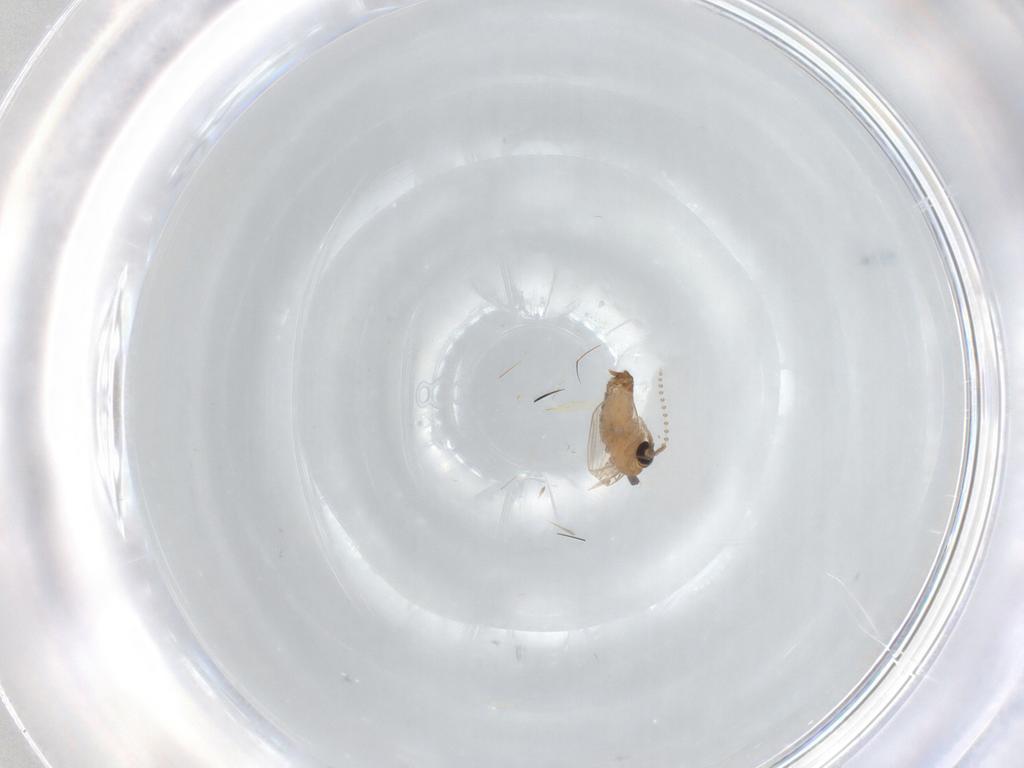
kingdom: Animalia
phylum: Arthropoda
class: Insecta
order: Diptera
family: Psychodidae
